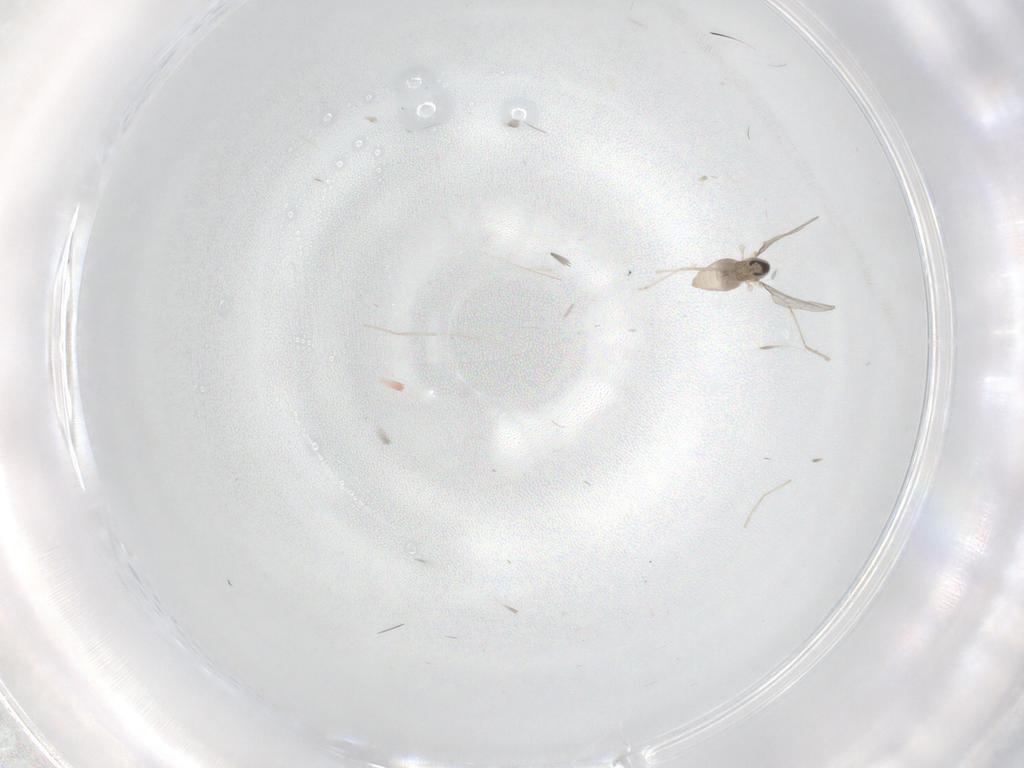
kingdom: Animalia
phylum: Arthropoda
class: Insecta
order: Diptera
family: Cecidomyiidae
